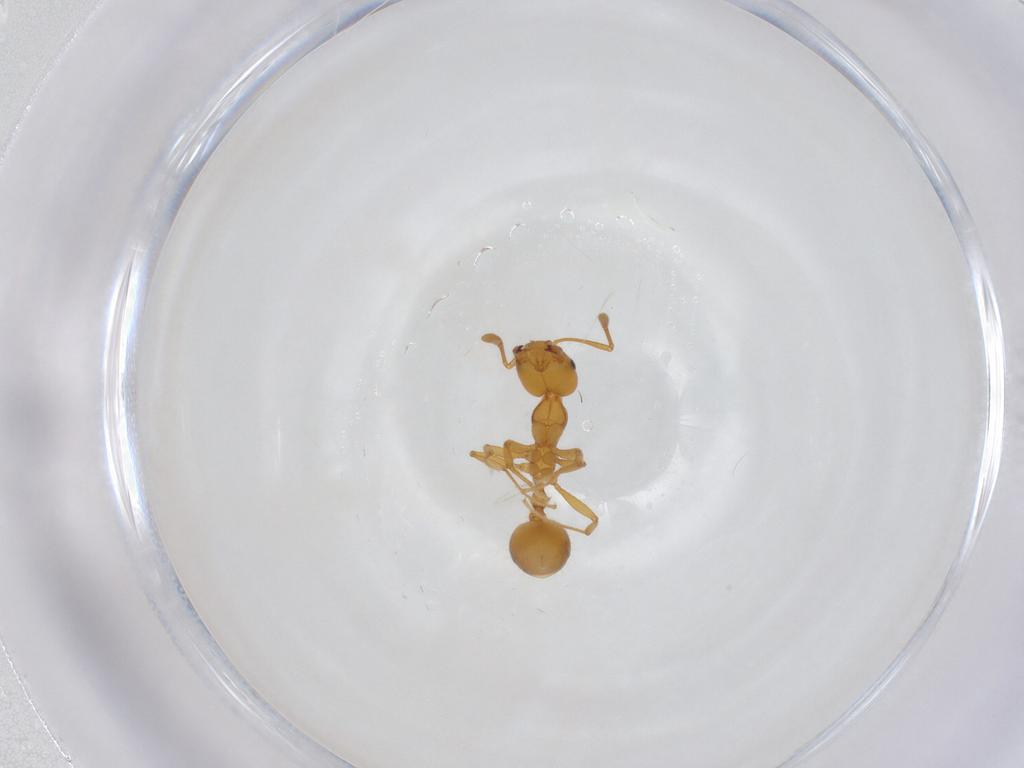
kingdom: Animalia
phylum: Arthropoda
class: Insecta
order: Hymenoptera
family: Formicidae
